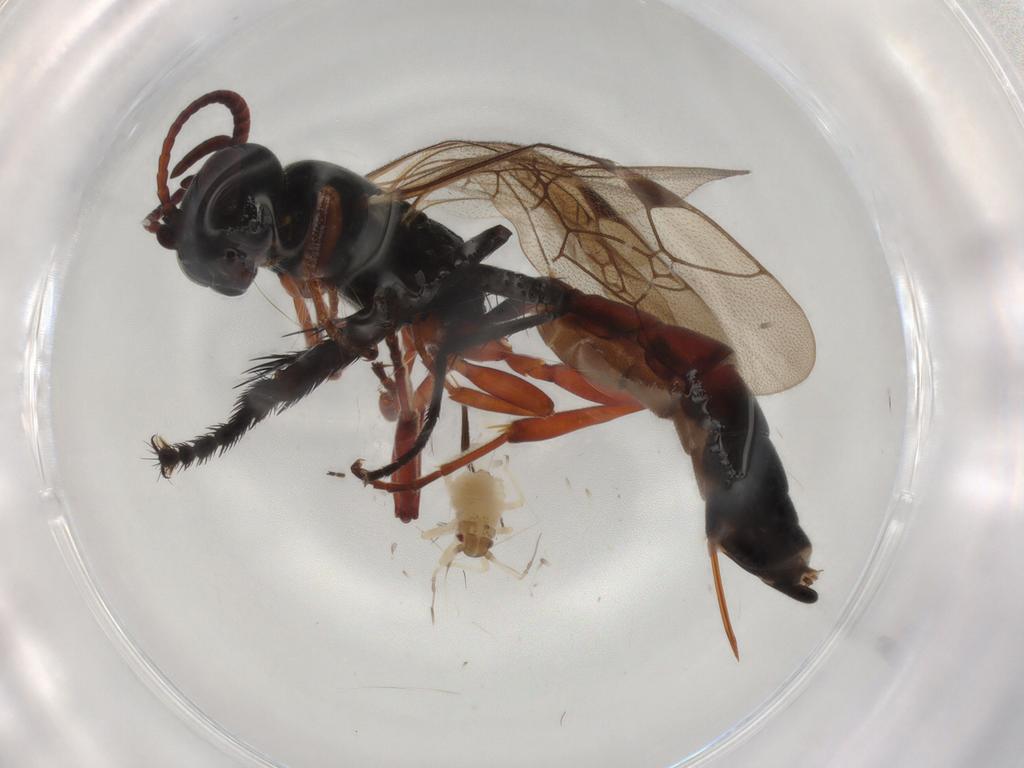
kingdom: Animalia
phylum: Arthropoda
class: Insecta
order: Hymenoptera
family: Ichneumonidae
